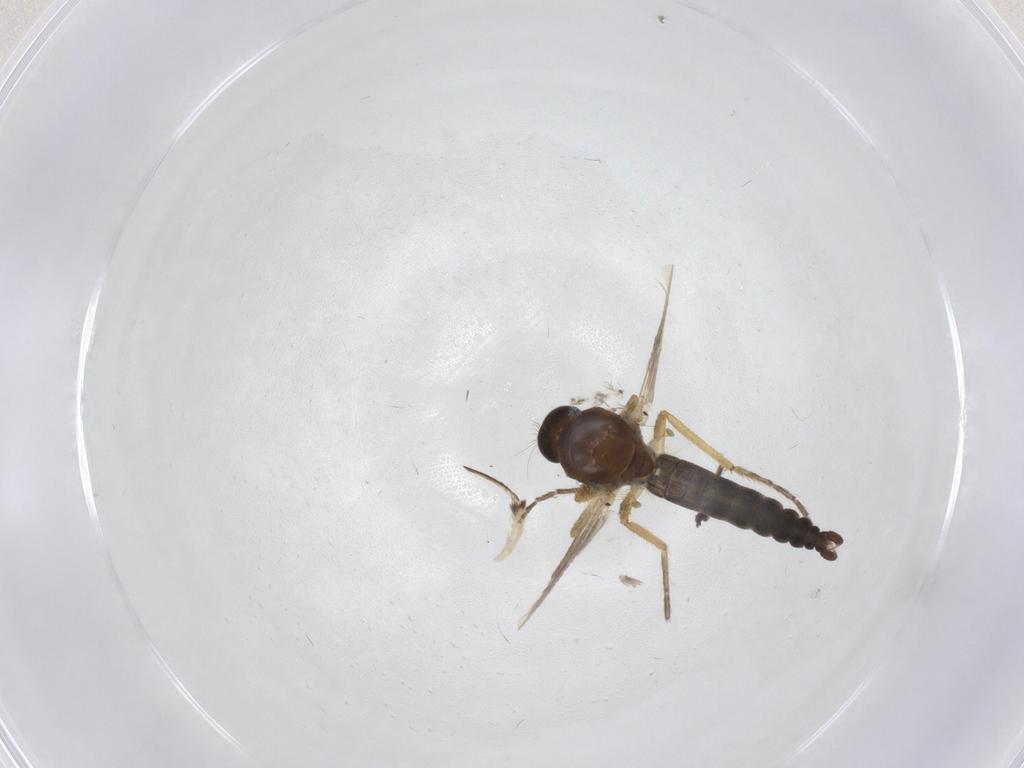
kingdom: Animalia
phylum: Arthropoda
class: Insecta
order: Diptera
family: Ceratopogonidae
